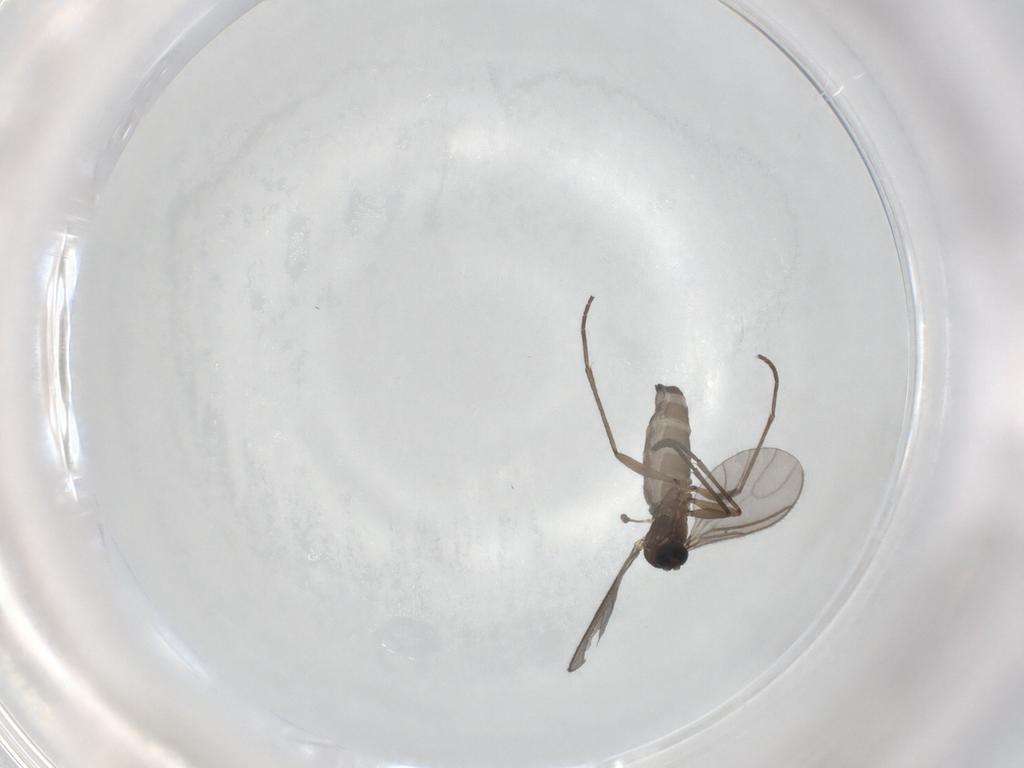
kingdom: Animalia
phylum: Arthropoda
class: Insecta
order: Diptera
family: Sciaridae
